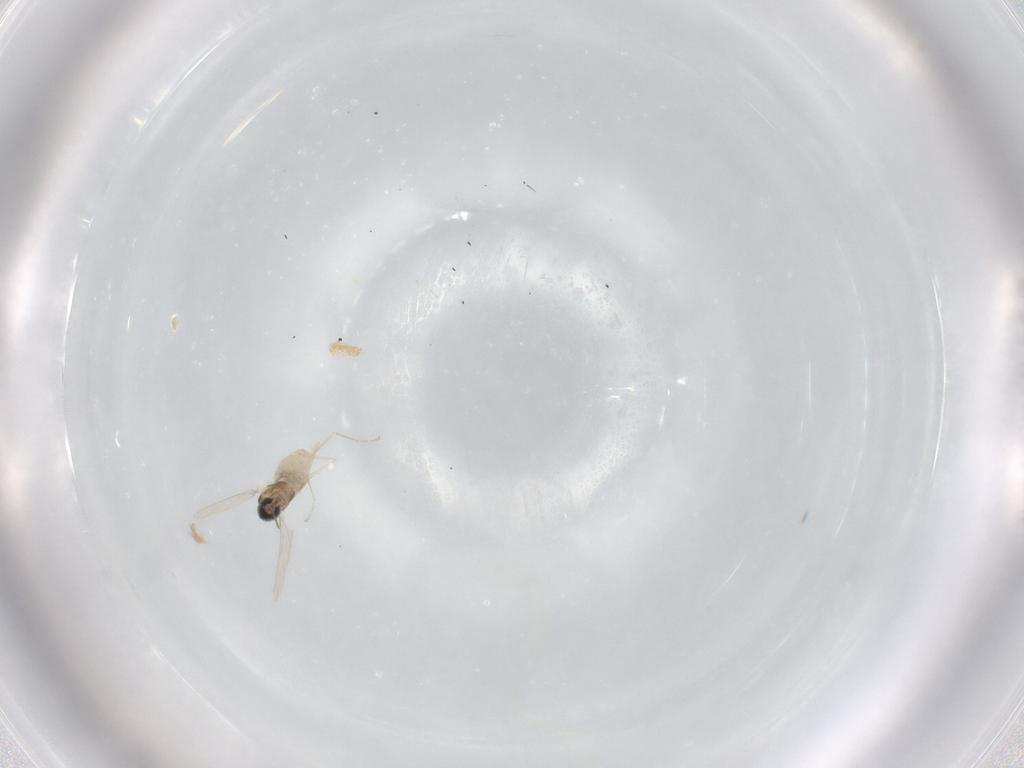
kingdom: Animalia
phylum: Arthropoda
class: Insecta
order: Diptera
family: Cecidomyiidae
